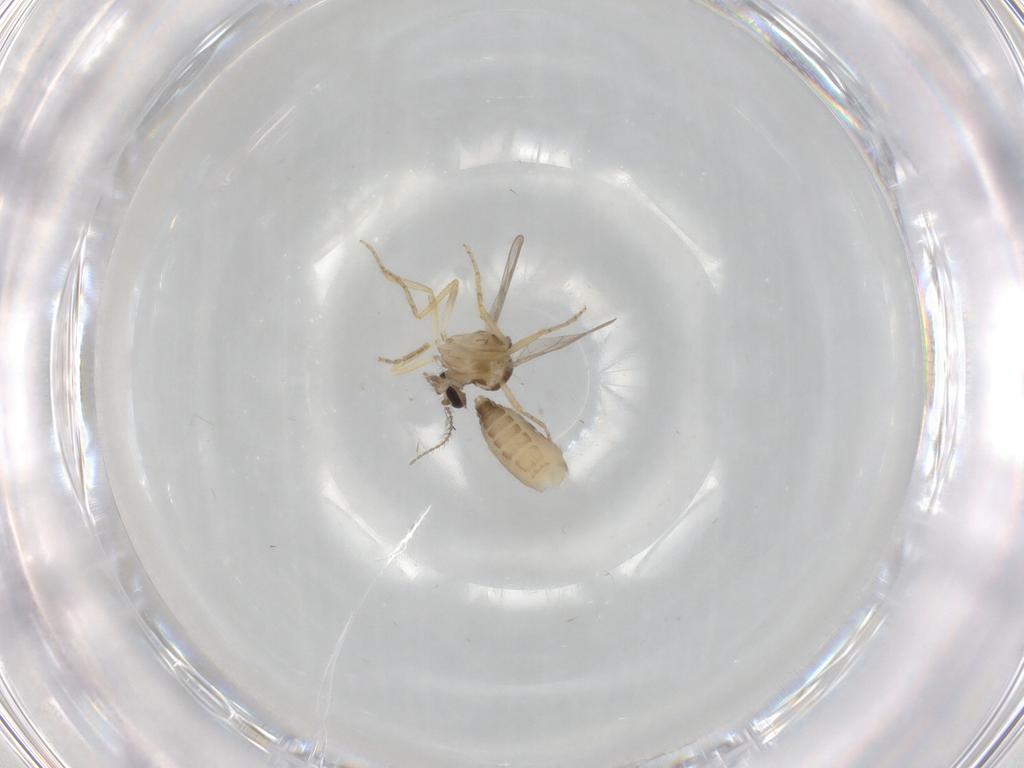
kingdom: Animalia
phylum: Arthropoda
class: Insecta
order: Diptera
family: Ceratopogonidae
